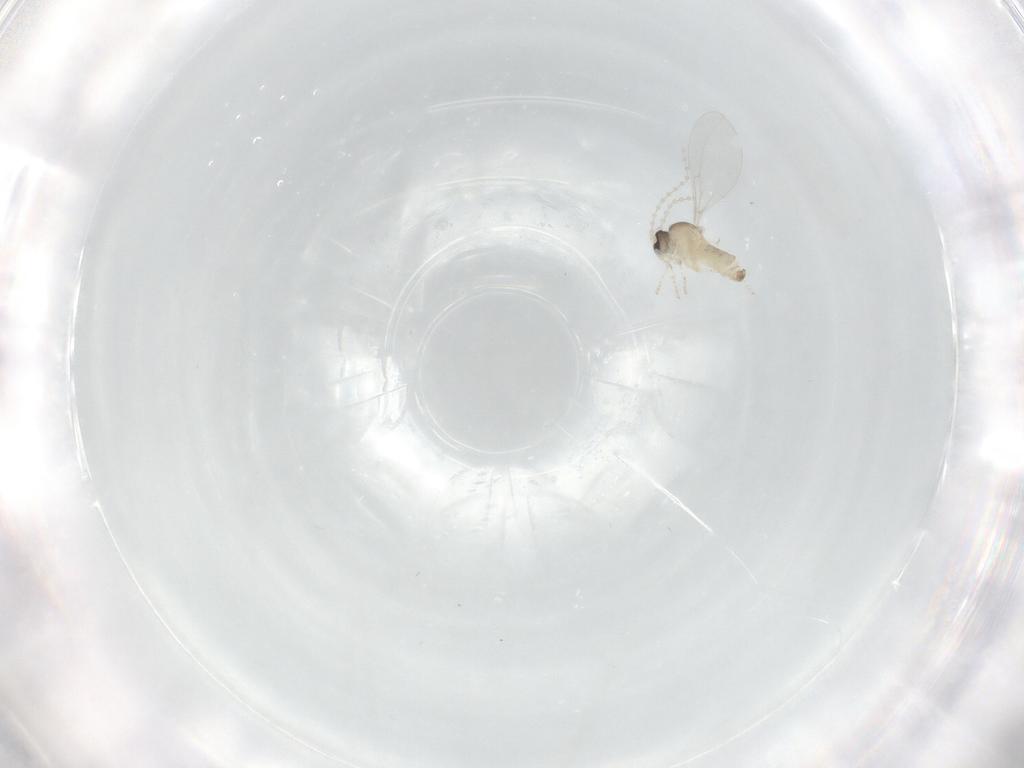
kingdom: Animalia
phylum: Arthropoda
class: Insecta
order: Diptera
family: Cecidomyiidae
